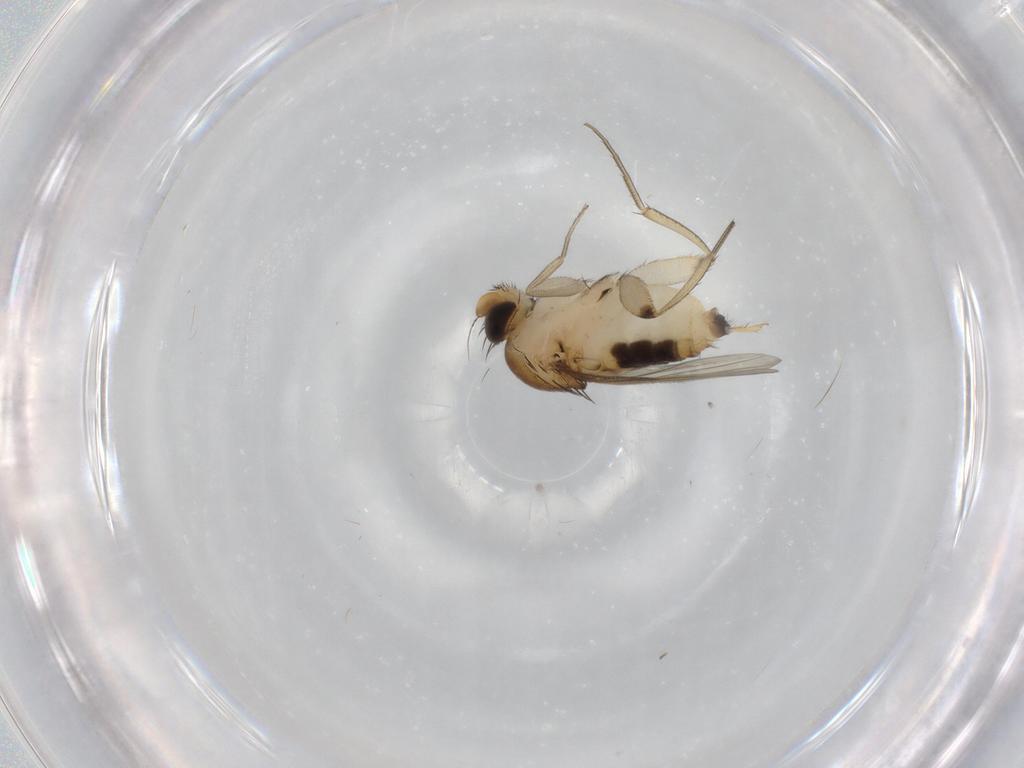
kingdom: Animalia
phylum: Arthropoda
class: Insecta
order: Diptera
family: Phoridae
